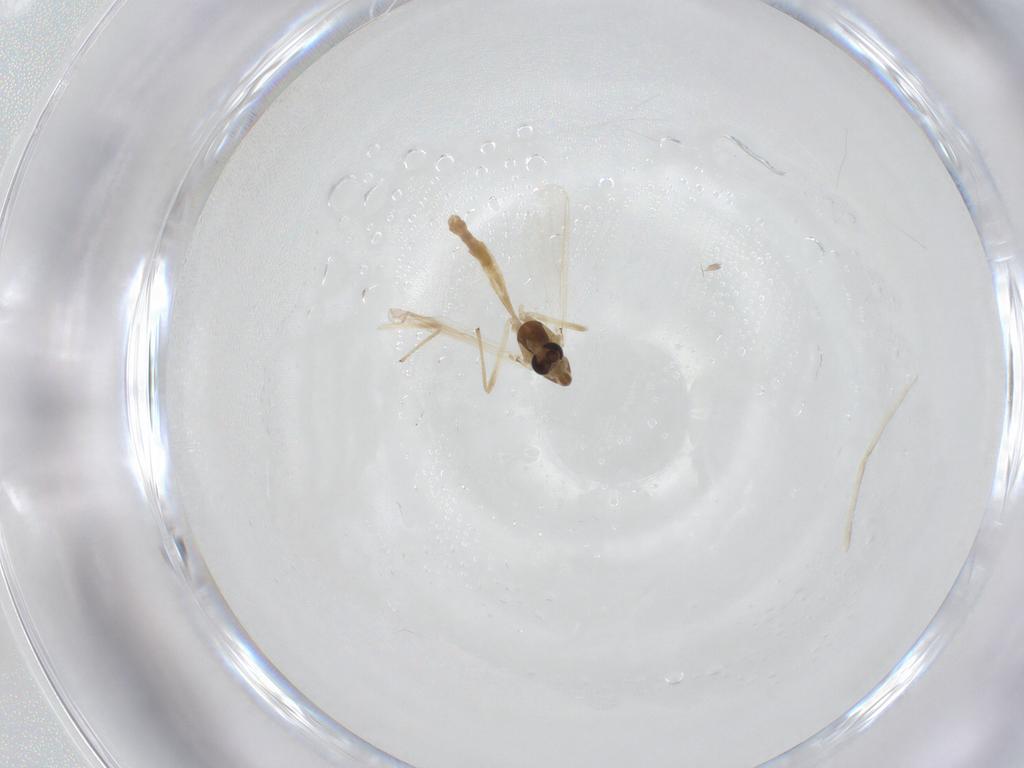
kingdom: Animalia
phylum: Arthropoda
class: Insecta
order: Diptera
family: Chironomidae
